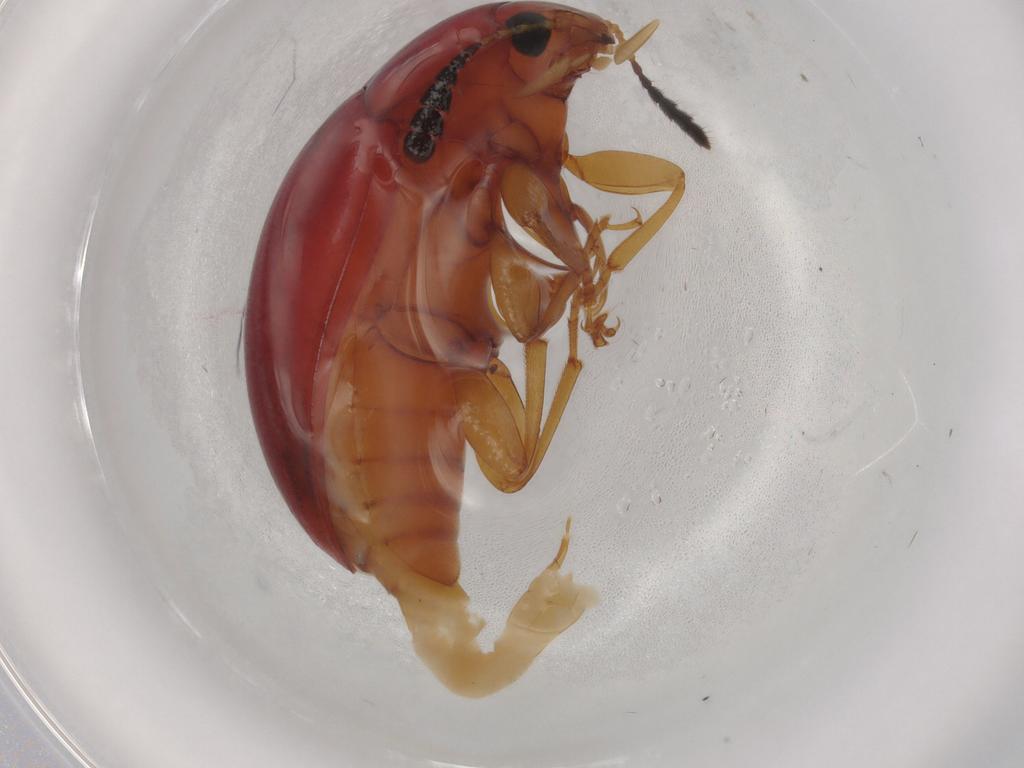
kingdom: Animalia
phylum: Arthropoda
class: Insecta
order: Coleoptera
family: Erotylidae
